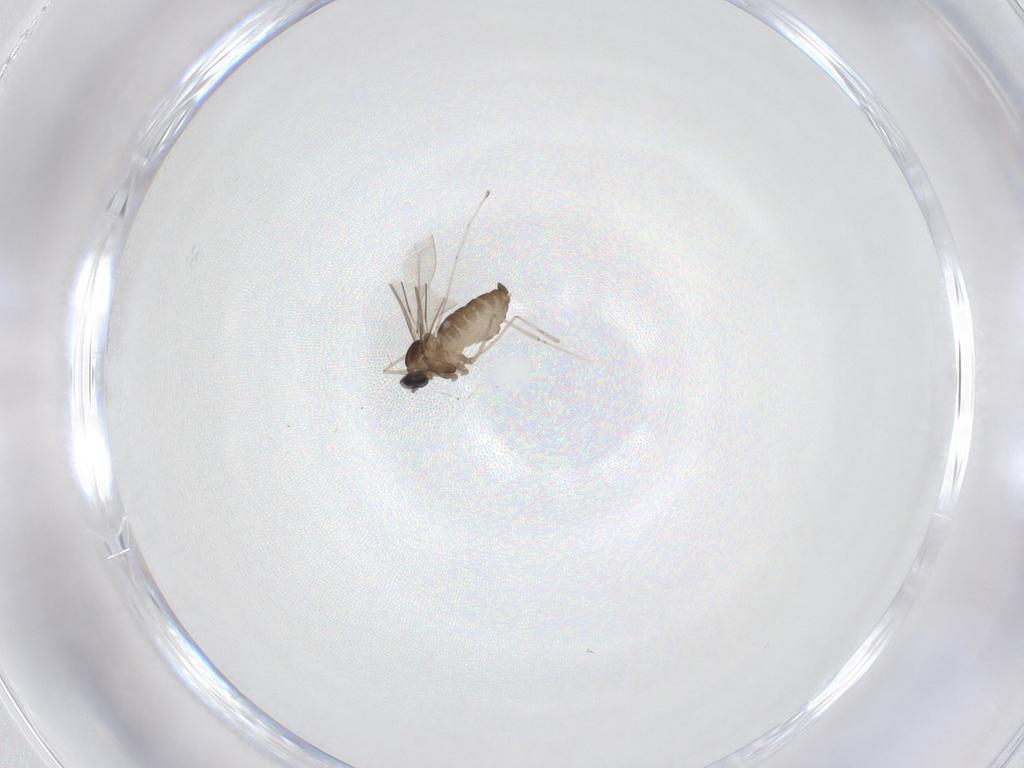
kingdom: Animalia
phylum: Arthropoda
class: Insecta
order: Diptera
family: Cecidomyiidae
